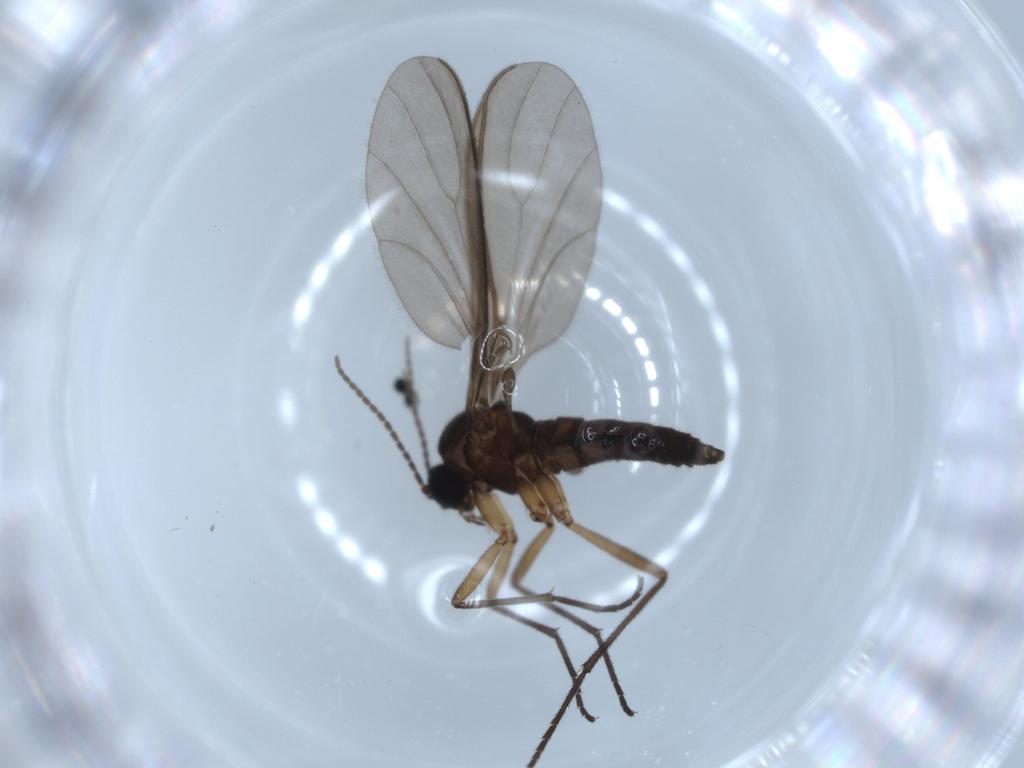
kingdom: Animalia
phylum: Arthropoda
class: Insecta
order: Diptera
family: Sciaridae
